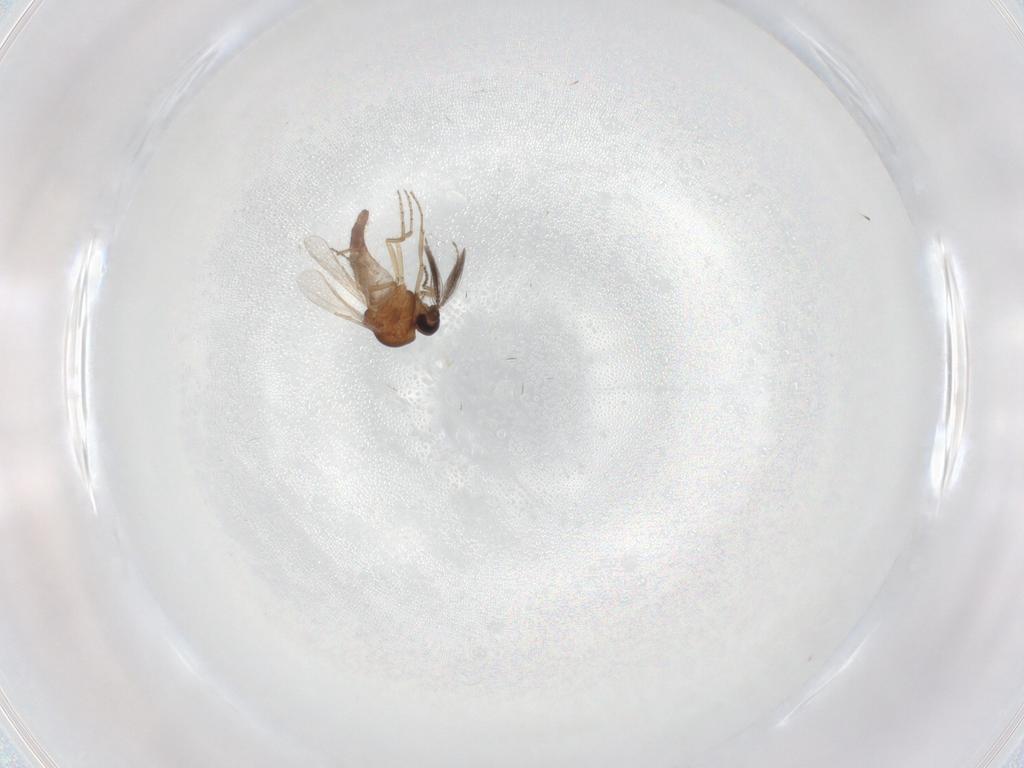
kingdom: Animalia
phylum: Arthropoda
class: Insecta
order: Diptera
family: Ceratopogonidae
